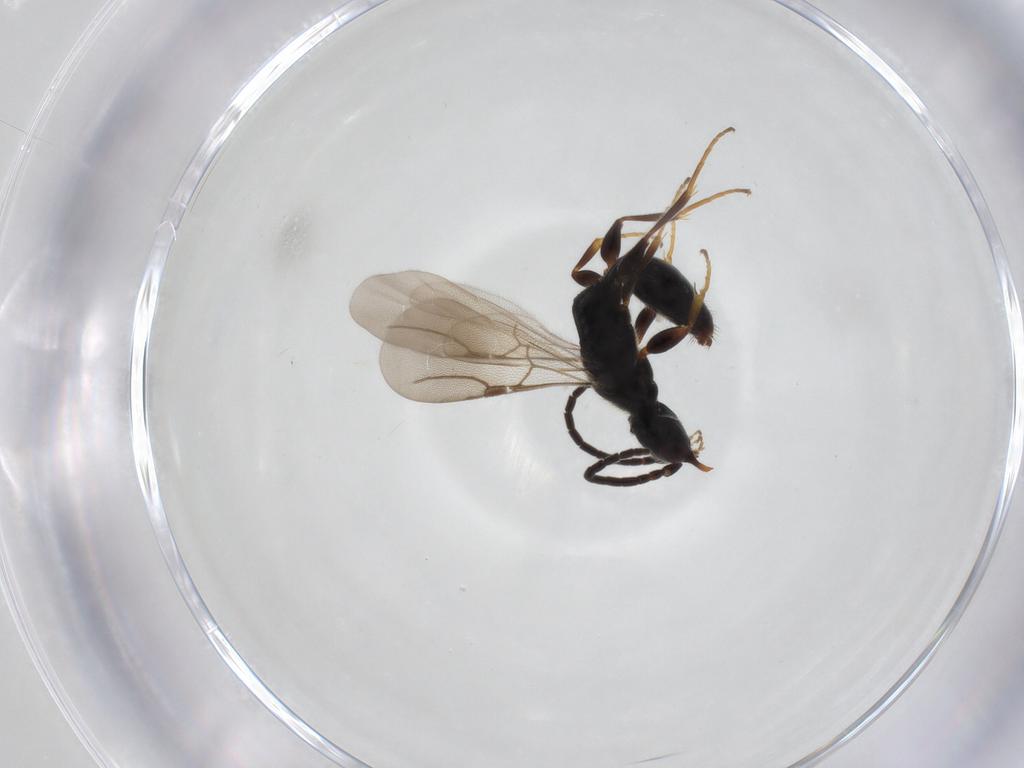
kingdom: Animalia
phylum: Arthropoda
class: Insecta
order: Hymenoptera
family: Bethylidae
